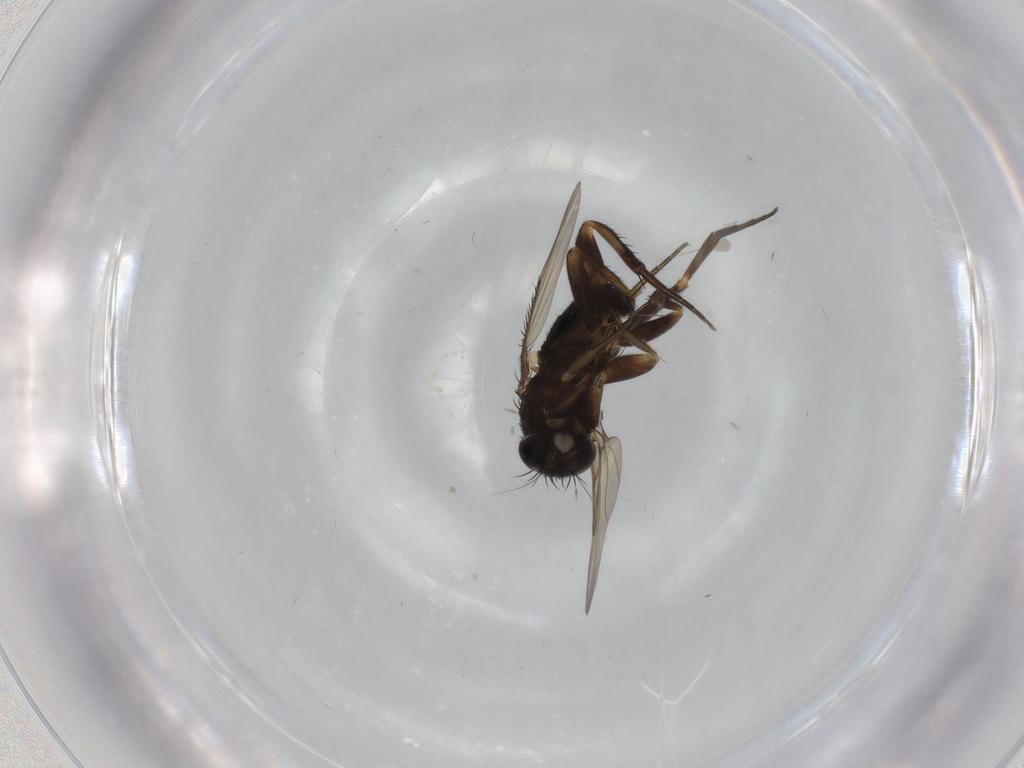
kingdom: Animalia
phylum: Arthropoda
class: Insecta
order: Diptera
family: Phoridae
